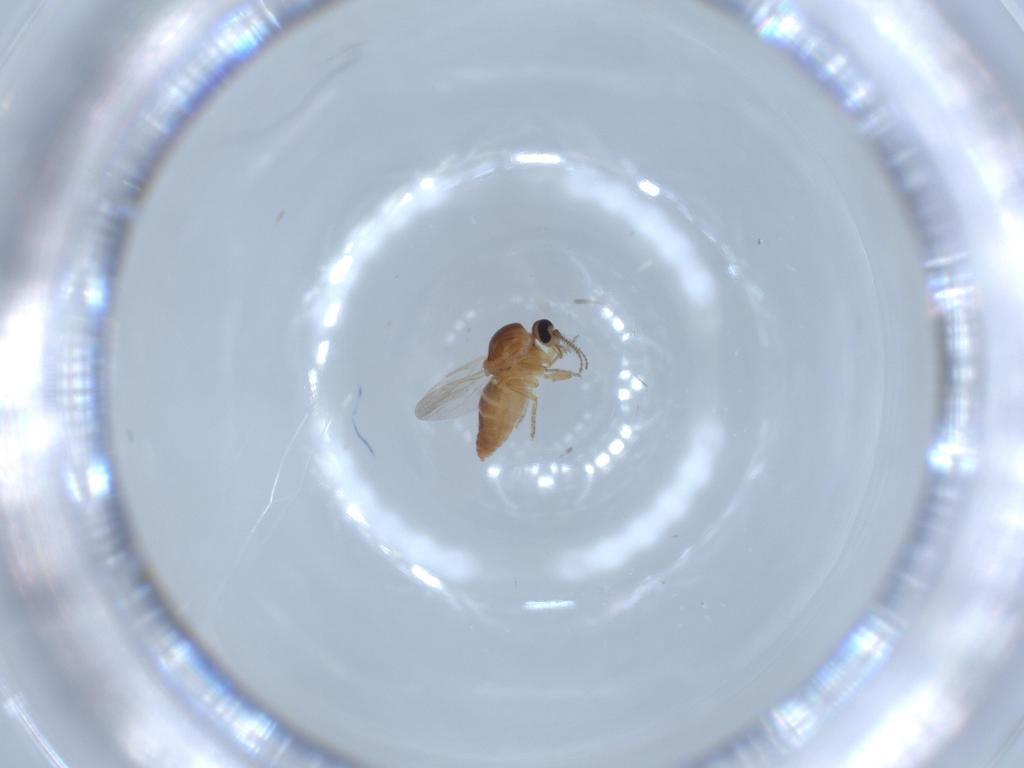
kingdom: Animalia
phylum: Arthropoda
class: Insecta
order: Diptera
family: Ceratopogonidae
